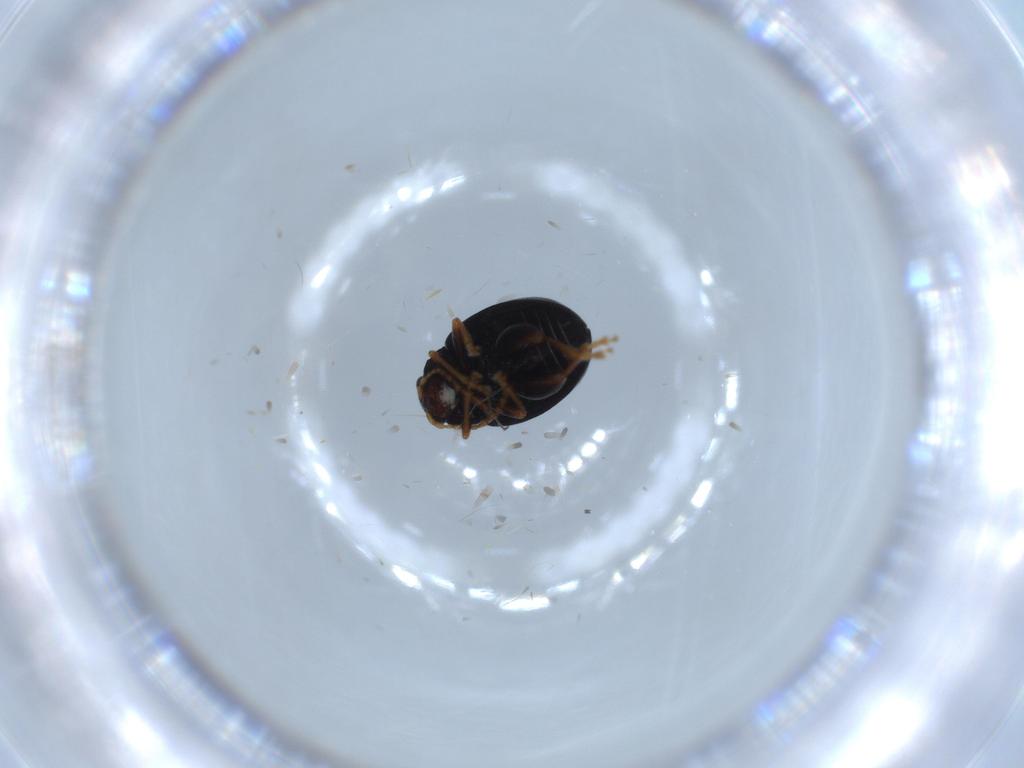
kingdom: Animalia
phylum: Arthropoda
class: Insecta
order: Coleoptera
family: Chrysomelidae
